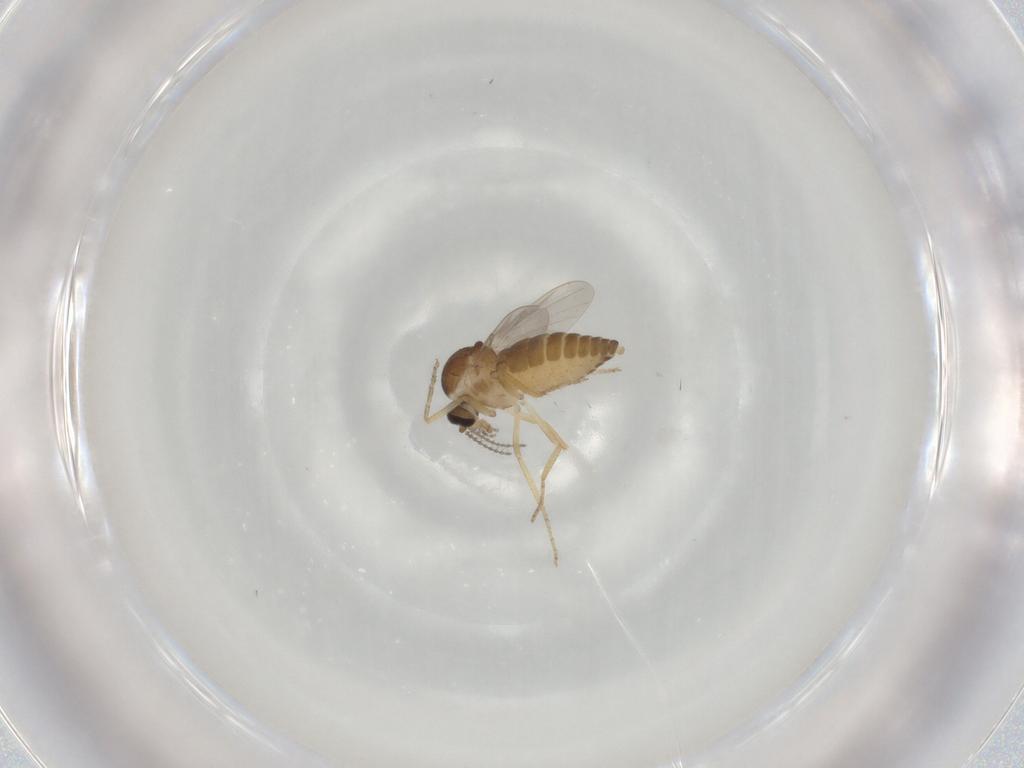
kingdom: Animalia
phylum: Arthropoda
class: Insecta
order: Diptera
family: Ceratopogonidae
